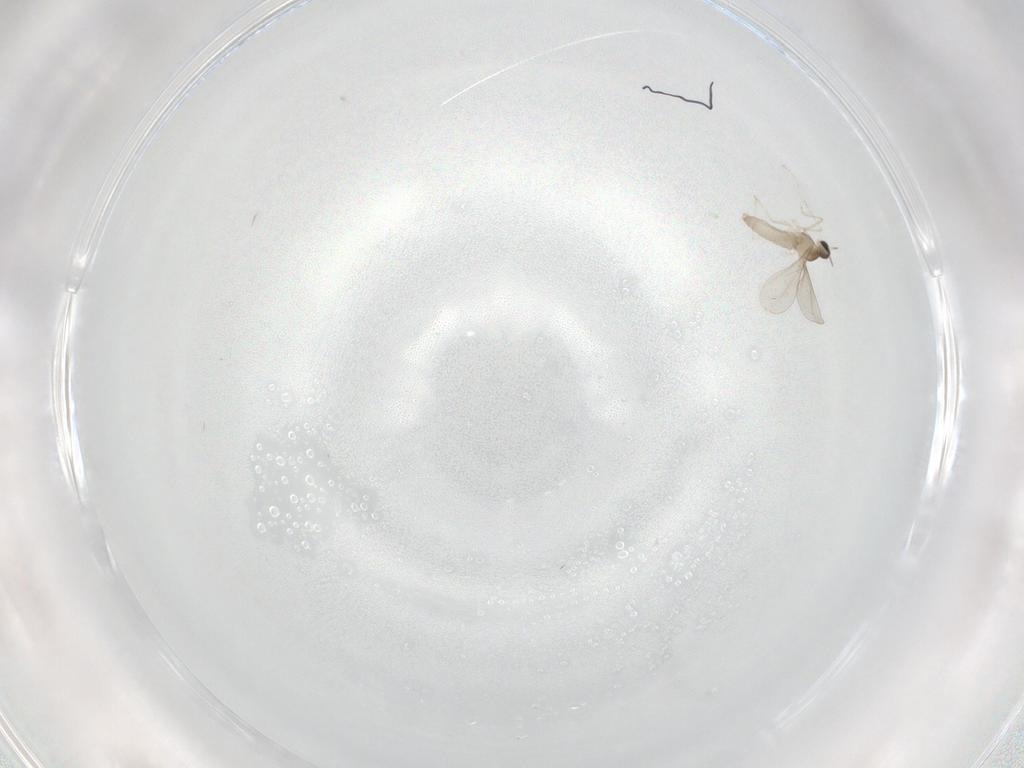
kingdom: Animalia
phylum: Arthropoda
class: Insecta
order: Diptera
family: Cecidomyiidae
